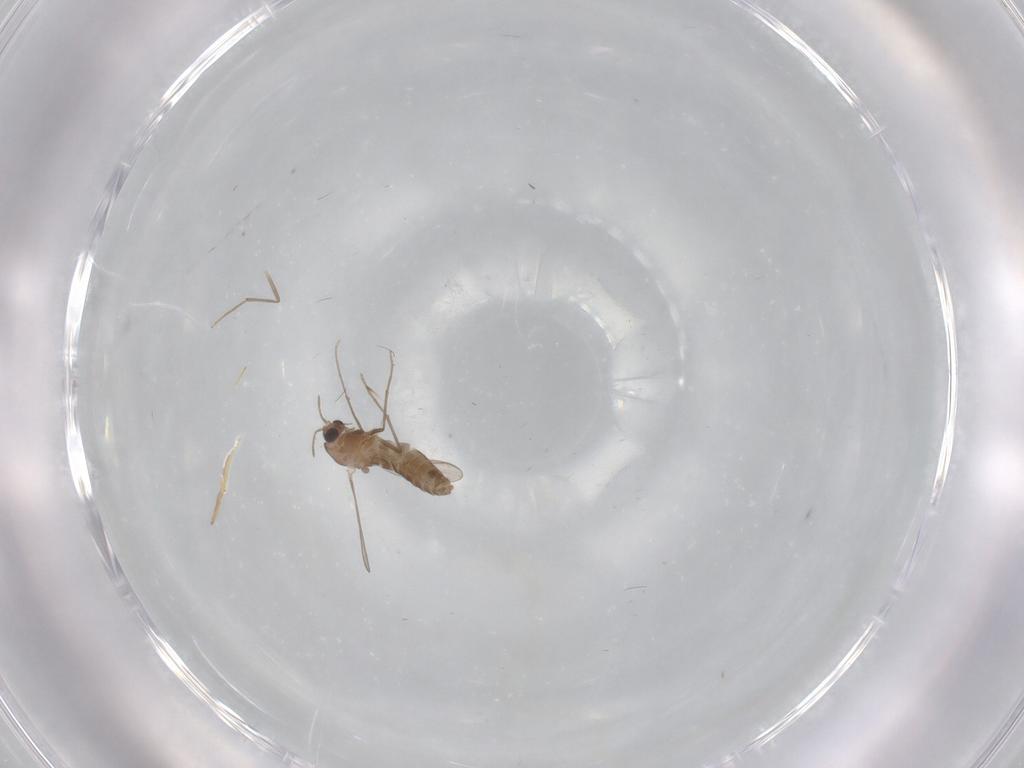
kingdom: Animalia
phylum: Arthropoda
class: Insecta
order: Diptera
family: Chironomidae
